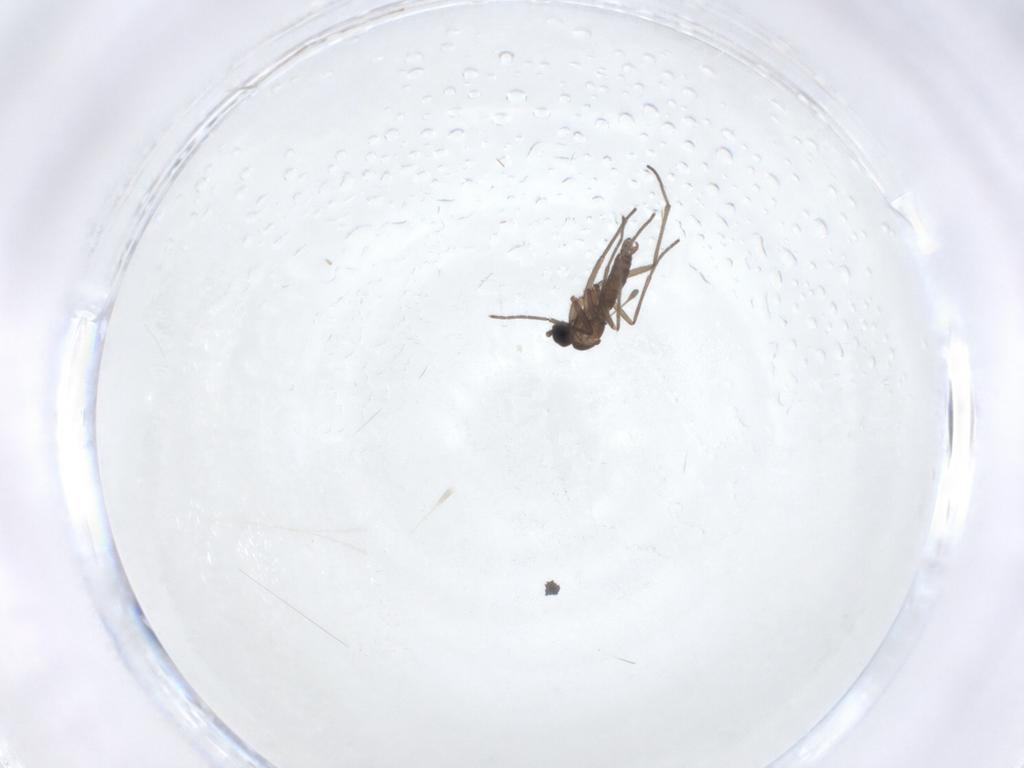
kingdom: Animalia
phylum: Arthropoda
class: Insecta
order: Diptera
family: Sciaridae
